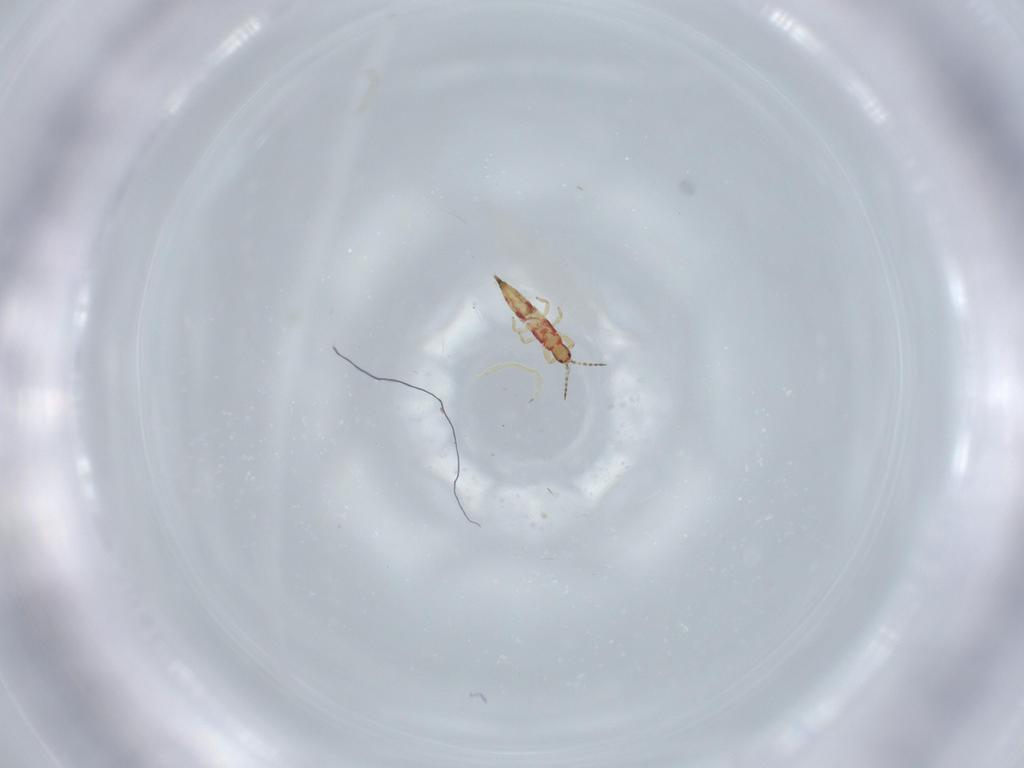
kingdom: Animalia
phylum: Arthropoda
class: Insecta
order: Thysanoptera
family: Phlaeothripidae
